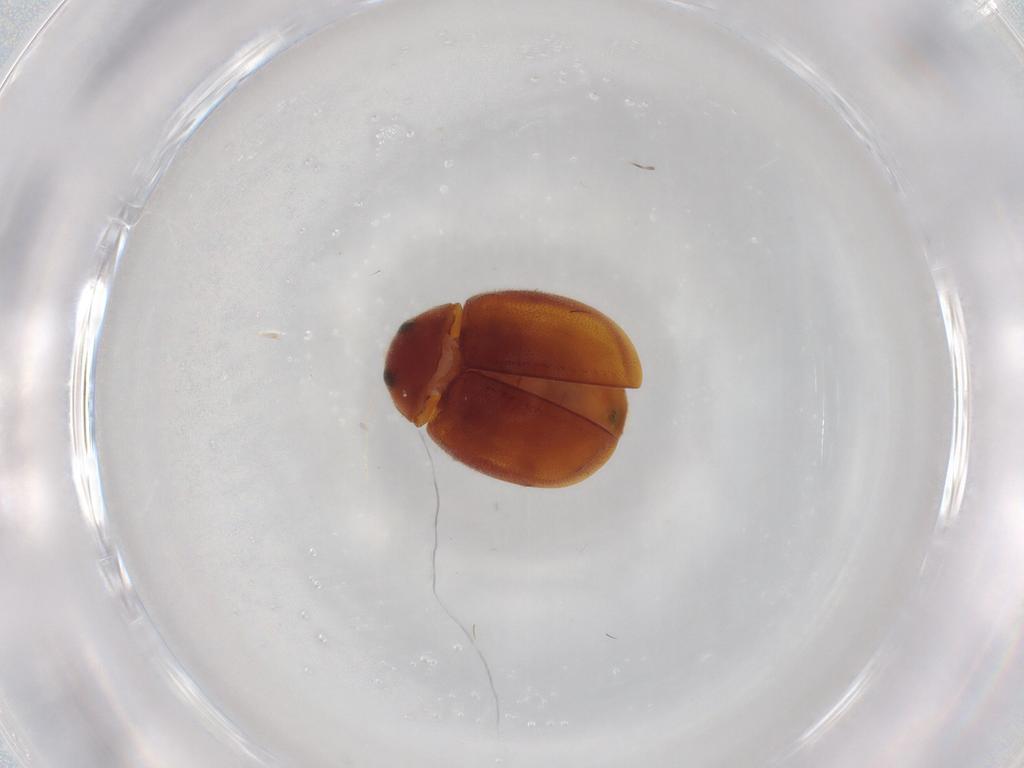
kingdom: Animalia
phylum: Arthropoda
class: Insecta
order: Coleoptera
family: Coccinellidae
